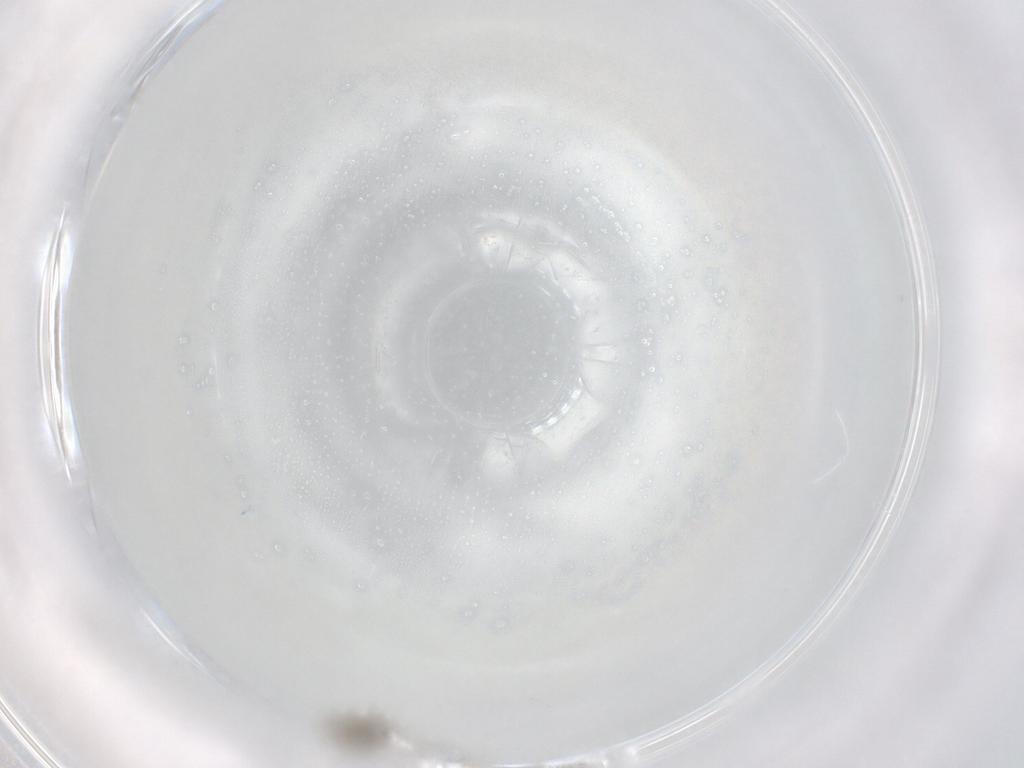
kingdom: Animalia
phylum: Arthropoda
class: Insecta
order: Diptera
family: Cecidomyiidae
